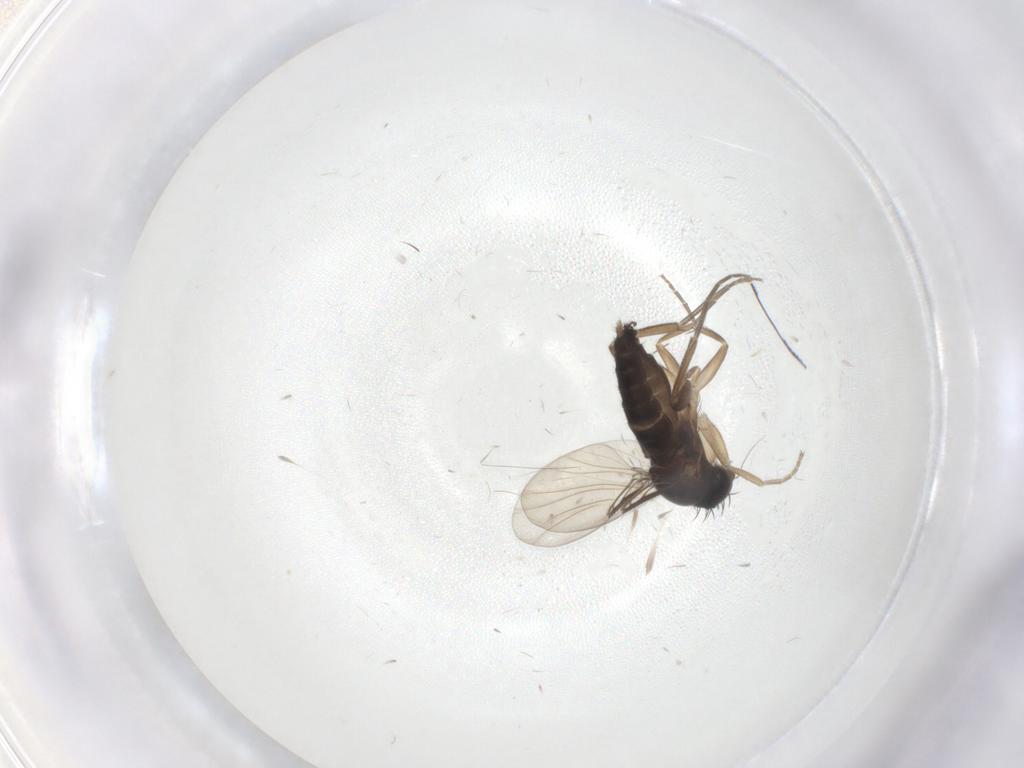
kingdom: Animalia
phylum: Arthropoda
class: Insecta
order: Diptera
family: Phoridae
